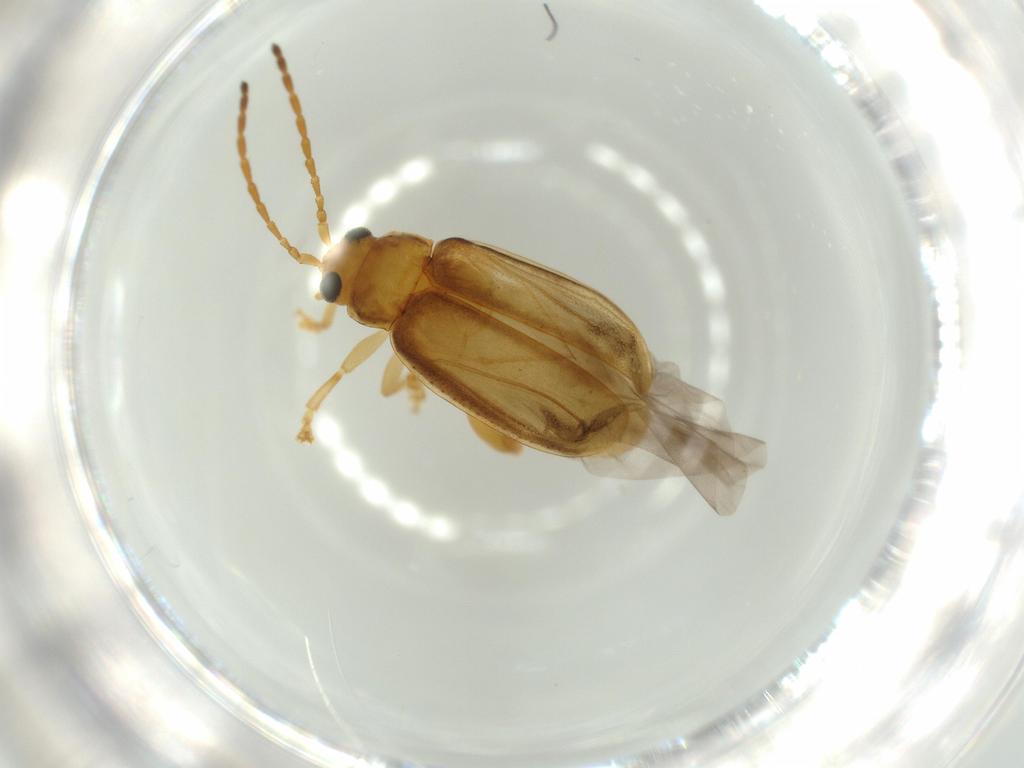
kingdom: Animalia
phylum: Arthropoda
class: Insecta
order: Coleoptera
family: Chrysomelidae
